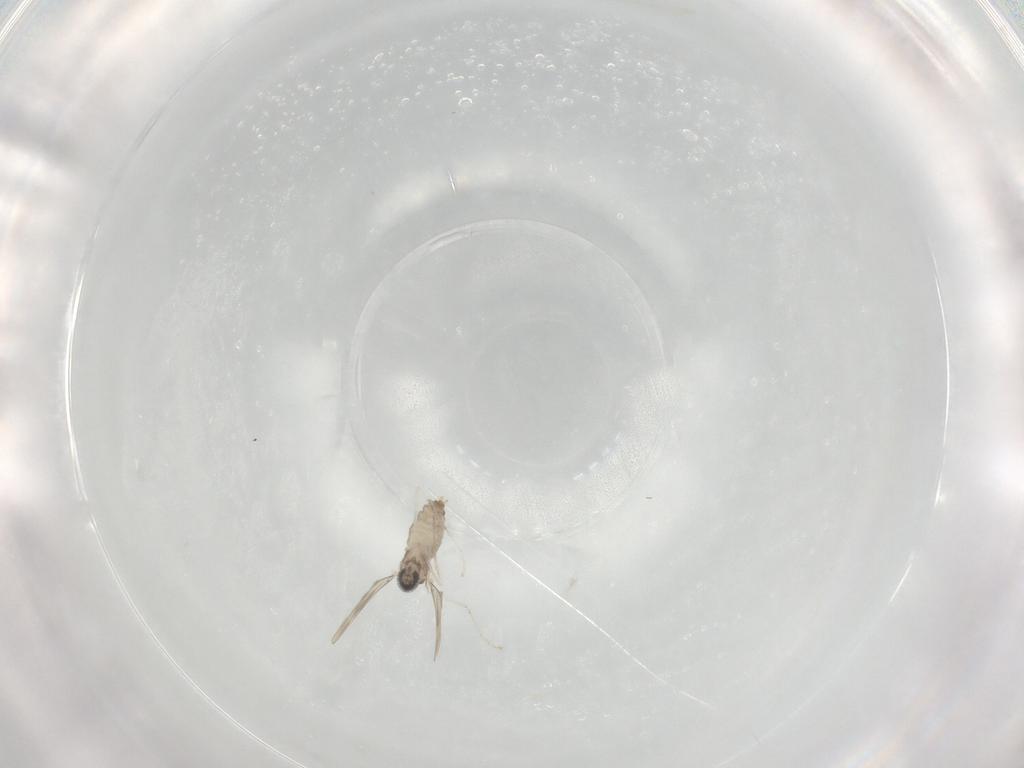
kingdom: Animalia
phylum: Arthropoda
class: Insecta
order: Diptera
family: Cecidomyiidae
